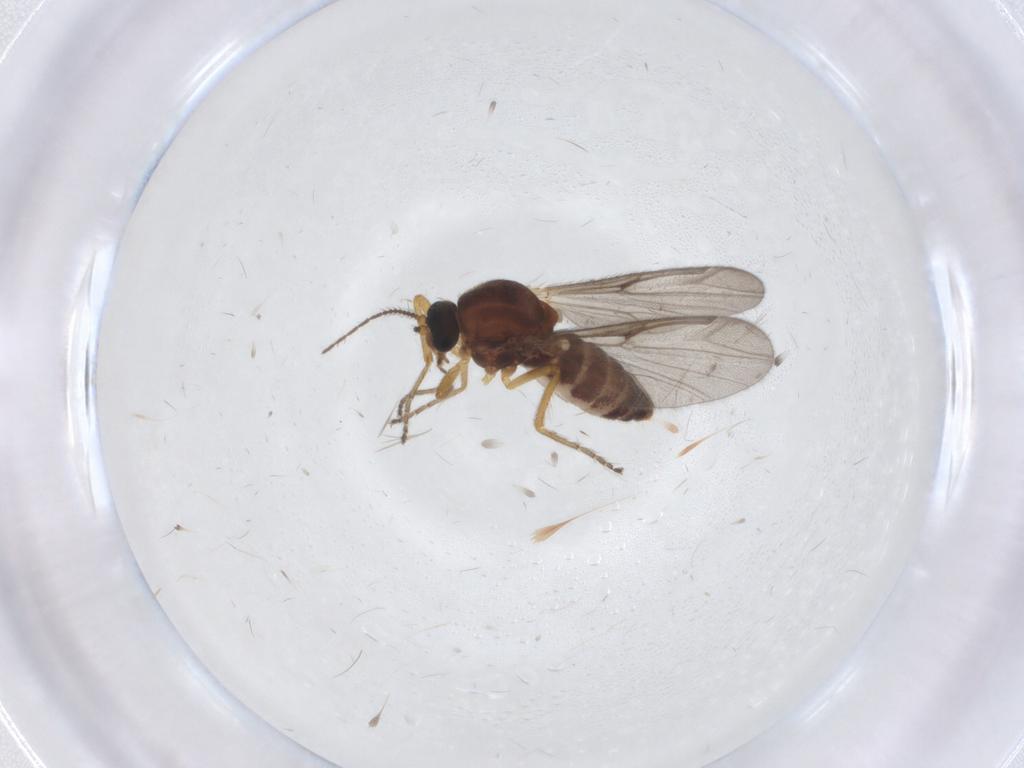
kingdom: Animalia
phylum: Arthropoda
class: Insecta
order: Diptera
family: Ceratopogonidae
